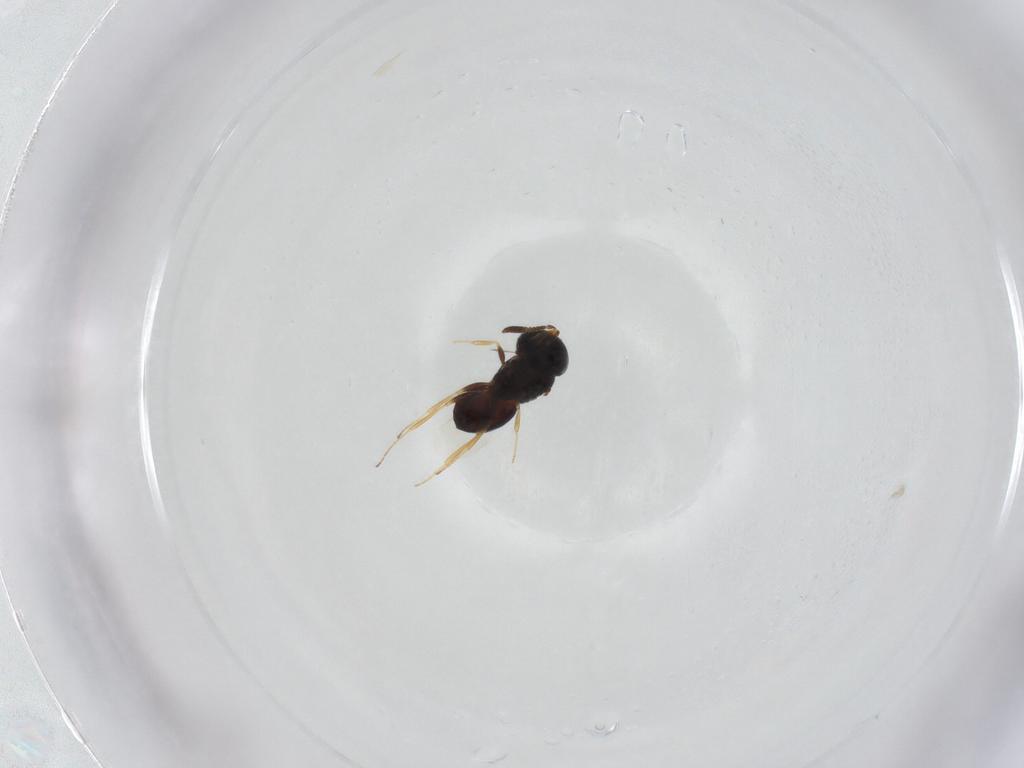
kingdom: Animalia
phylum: Arthropoda
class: Insecta
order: Hymenoptera
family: Scelionidae
